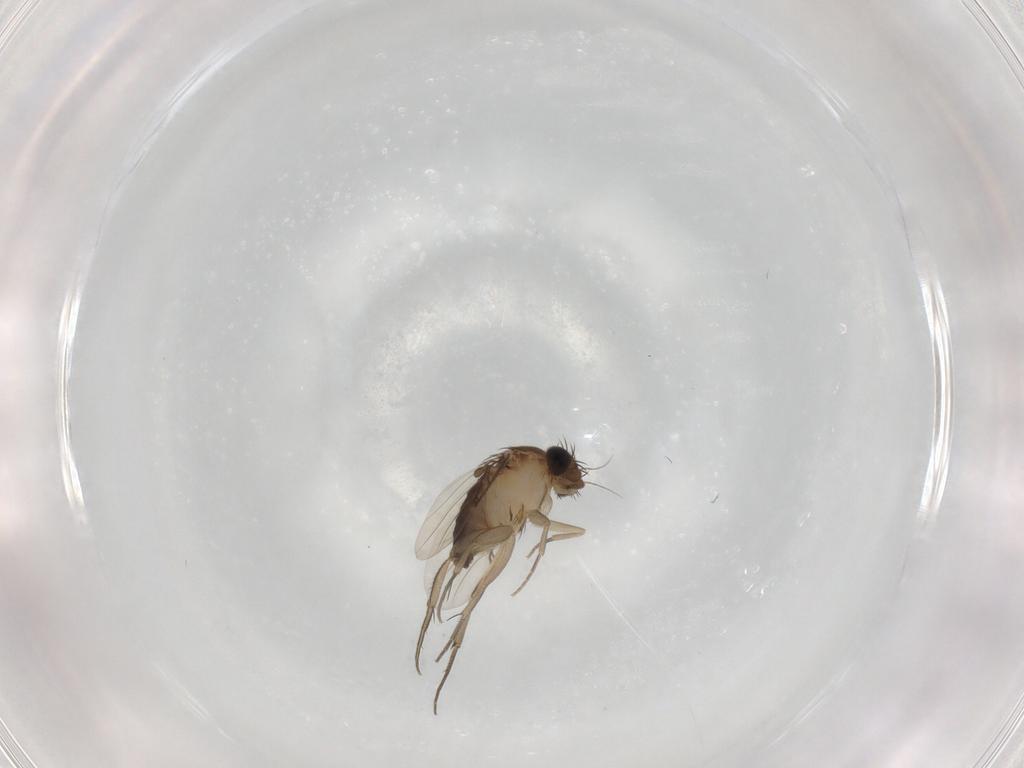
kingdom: Animalia
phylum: Arthropoda
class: Insecta
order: Diptera
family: Phoridae
